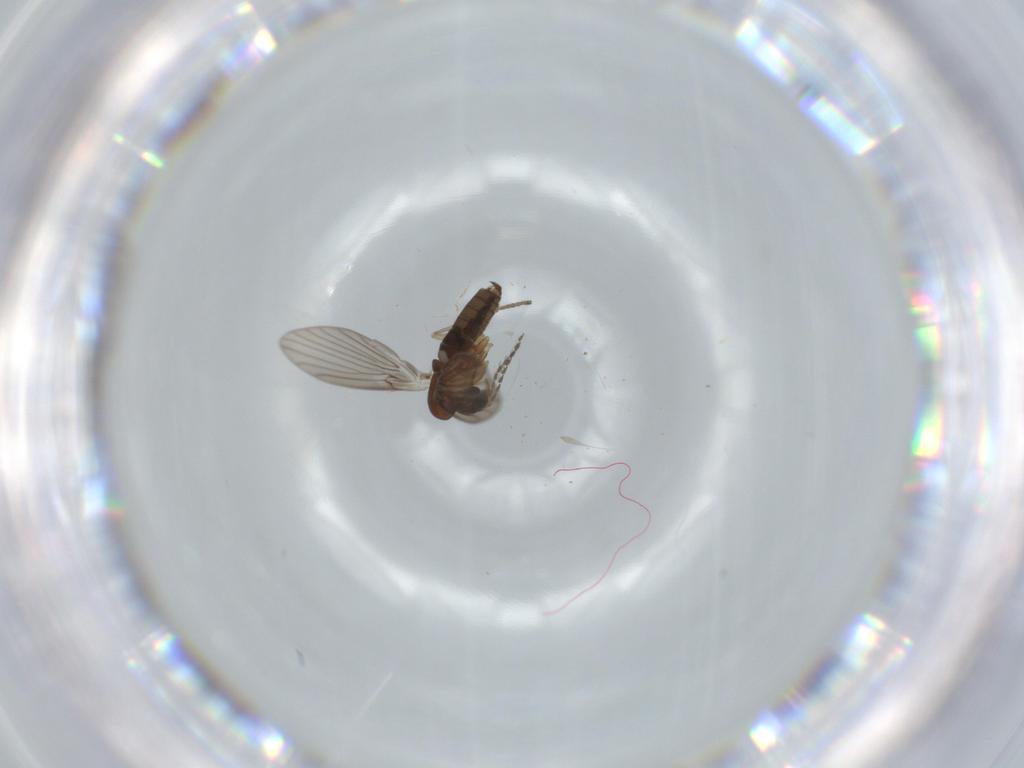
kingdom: Animalia
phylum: Arthropoda
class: Insecta
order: Diptera
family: Psychodidae
